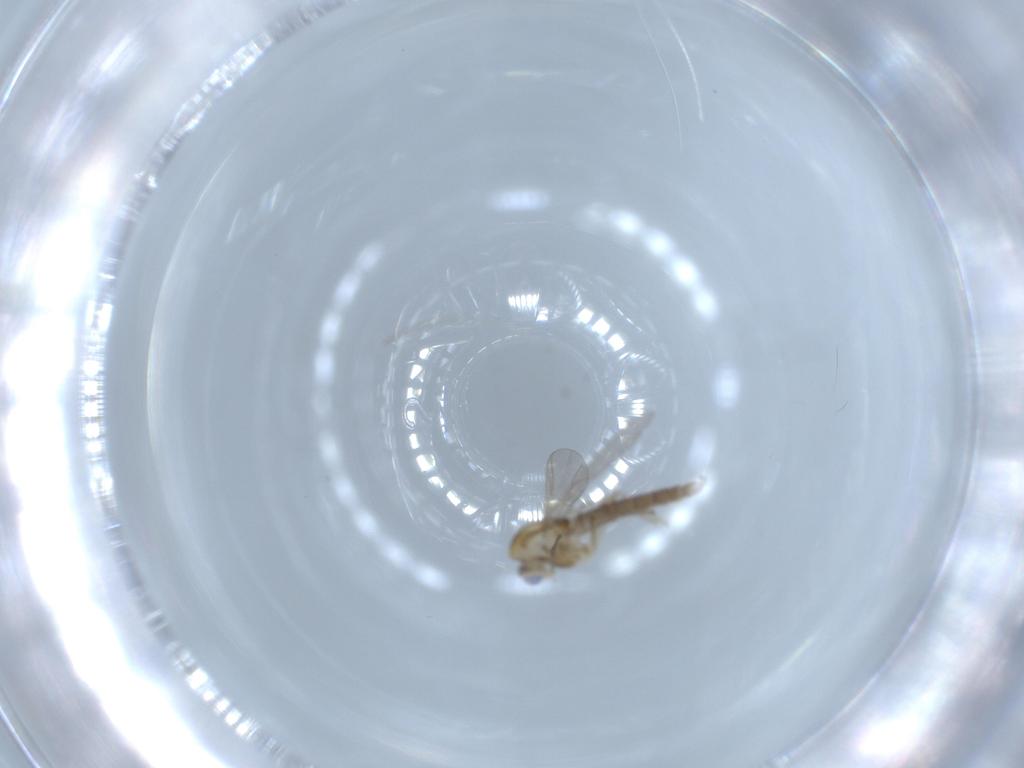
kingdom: Animalia
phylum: Arthropoda
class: Insecta
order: Diptera
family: Chironomidae
